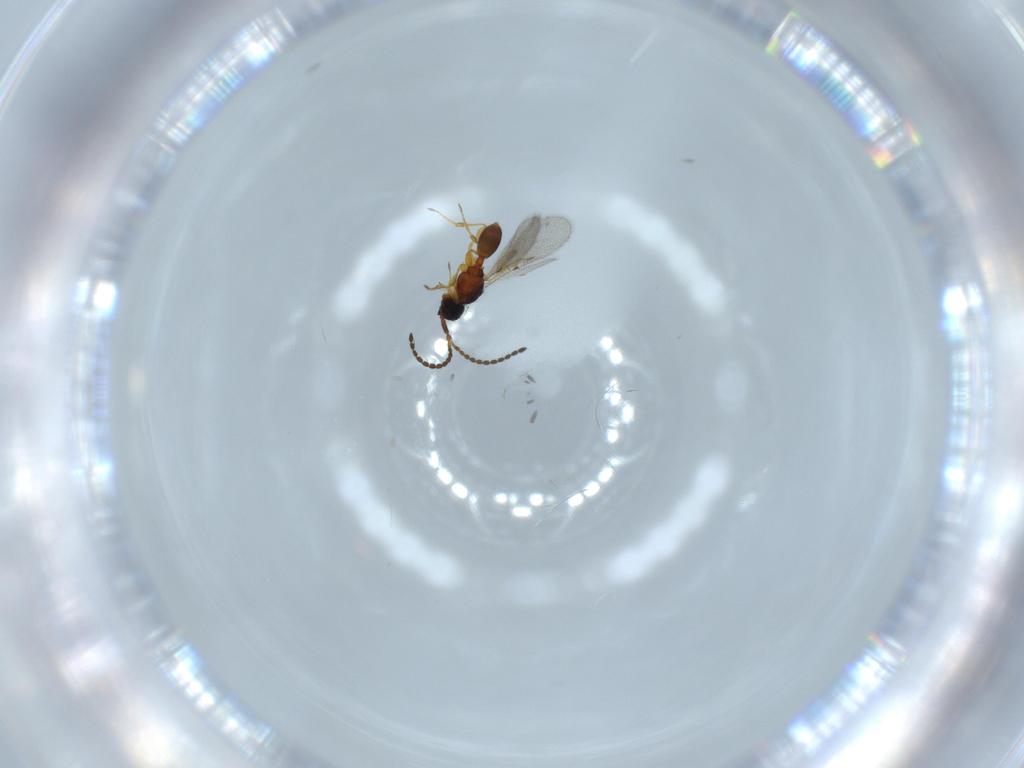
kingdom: Animalia
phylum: Arthropoda
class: Insecta
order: Hymenoptera
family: Diapriidae
